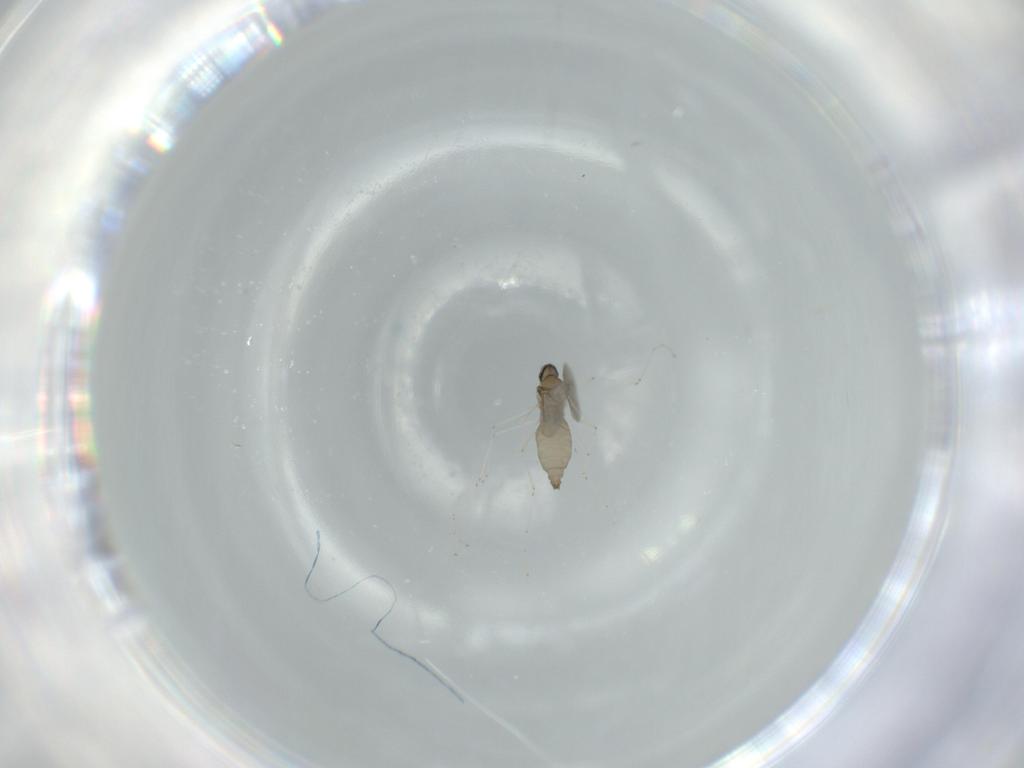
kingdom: Animalia
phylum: Arthropoda
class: Insecta
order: Diptera
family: Cecidomyiidae
